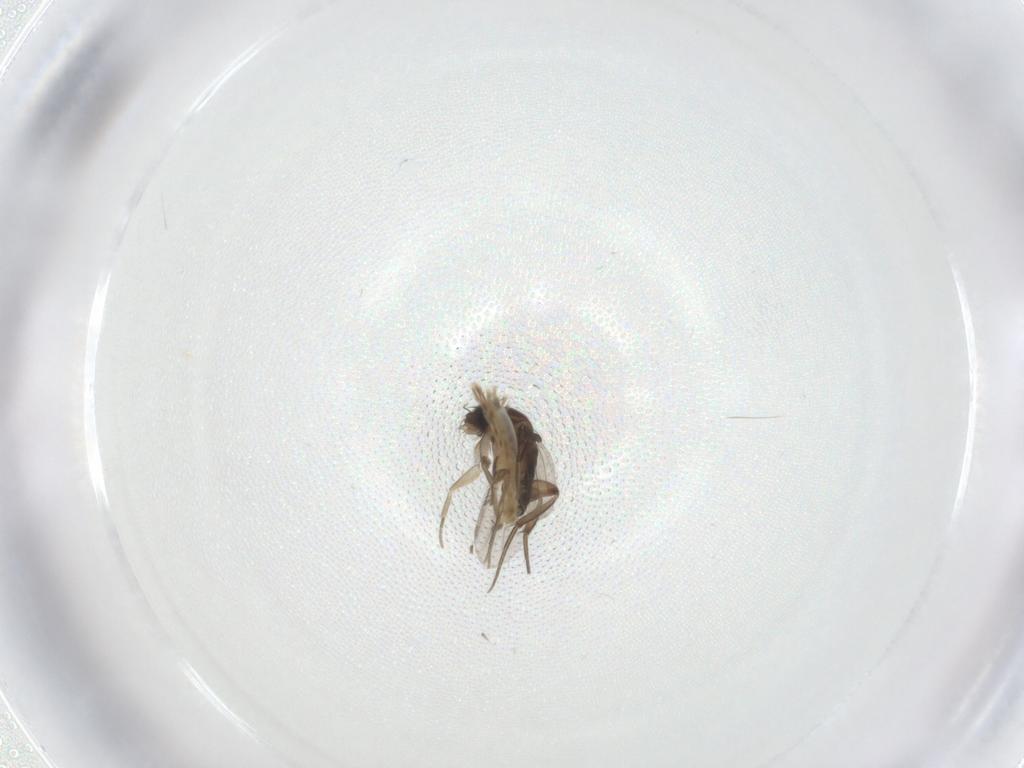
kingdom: Animalia
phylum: Arthropoda
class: Insecta
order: Diptera
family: Phoridae
